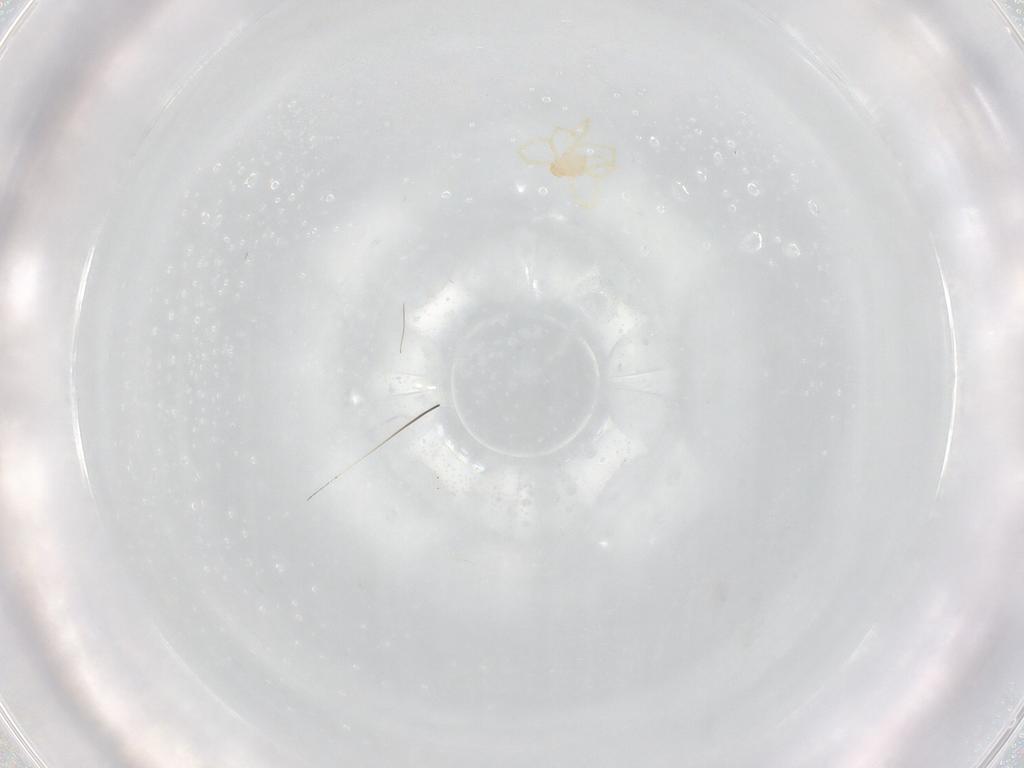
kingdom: Animalia
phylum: Arthropoda
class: Arachnida
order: Trombidiformes
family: Erythraeidae
